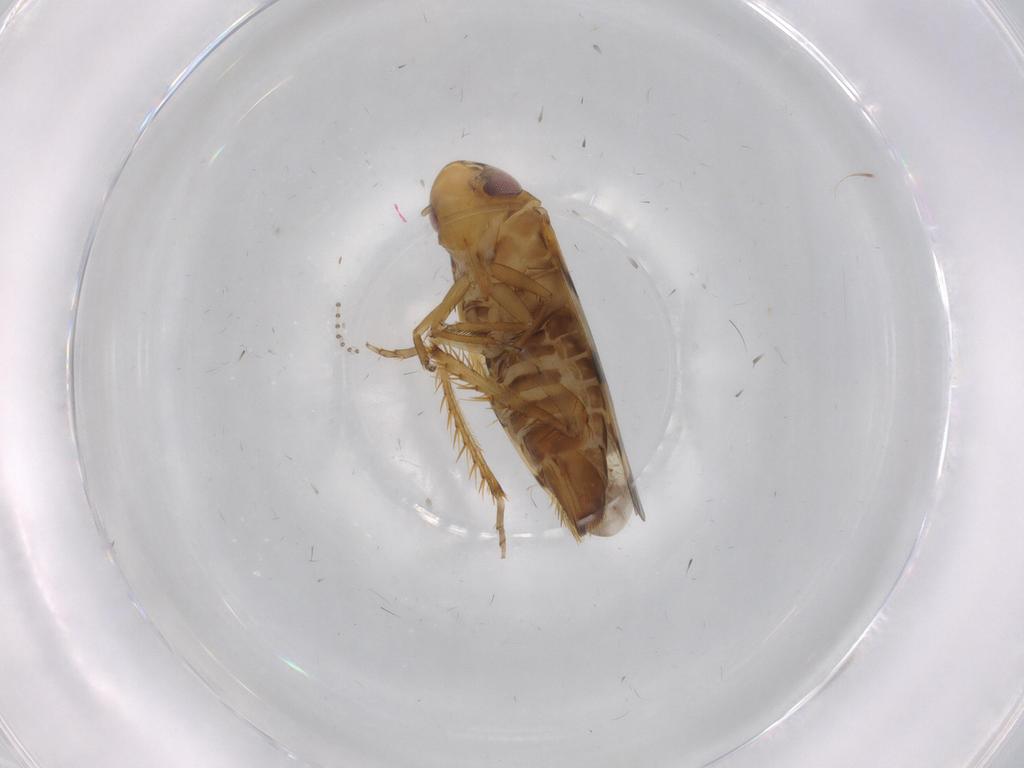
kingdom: Animalia
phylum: Arthropoda
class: Insecta
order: Hemiptera
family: Cicadellidae
